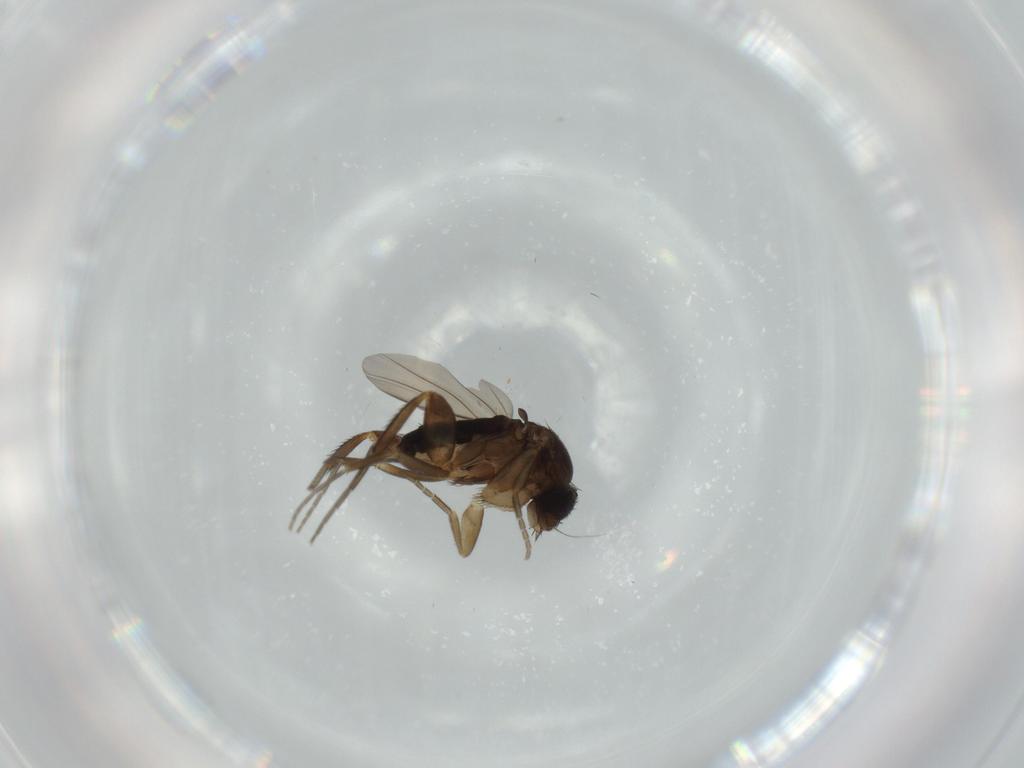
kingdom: Animalia
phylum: Arthropoda
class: Insecta
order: Diptera
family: Phoridae
